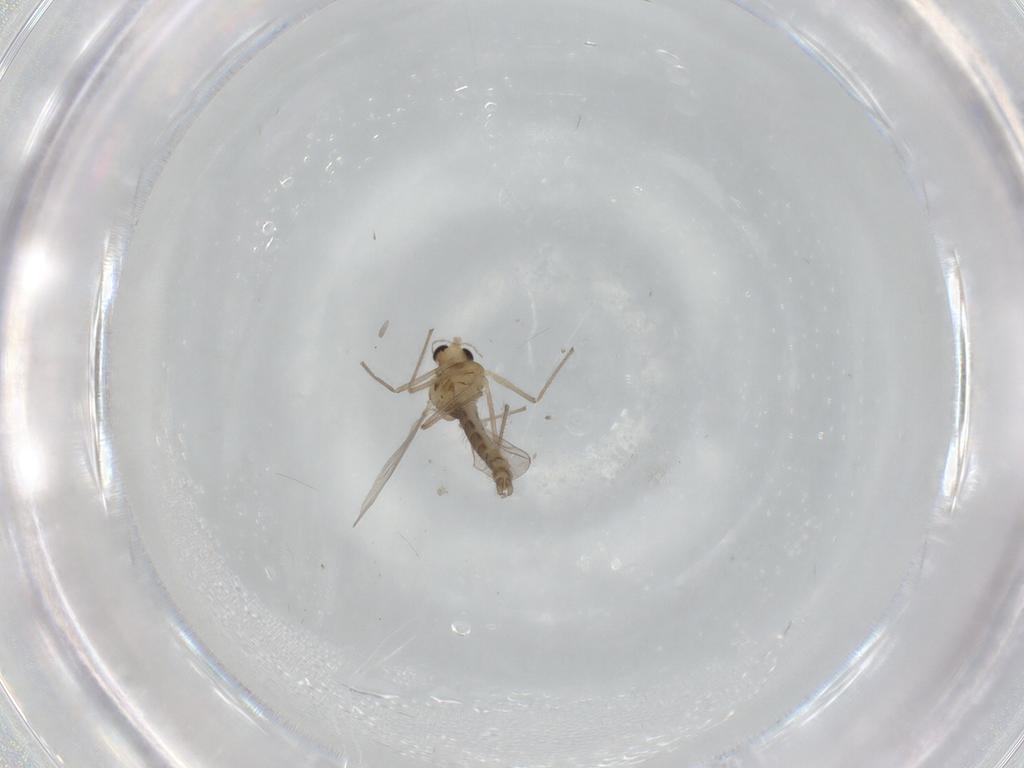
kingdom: Animalia
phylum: Arthropoda
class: Insecta
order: Diptera
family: Chironomidae
